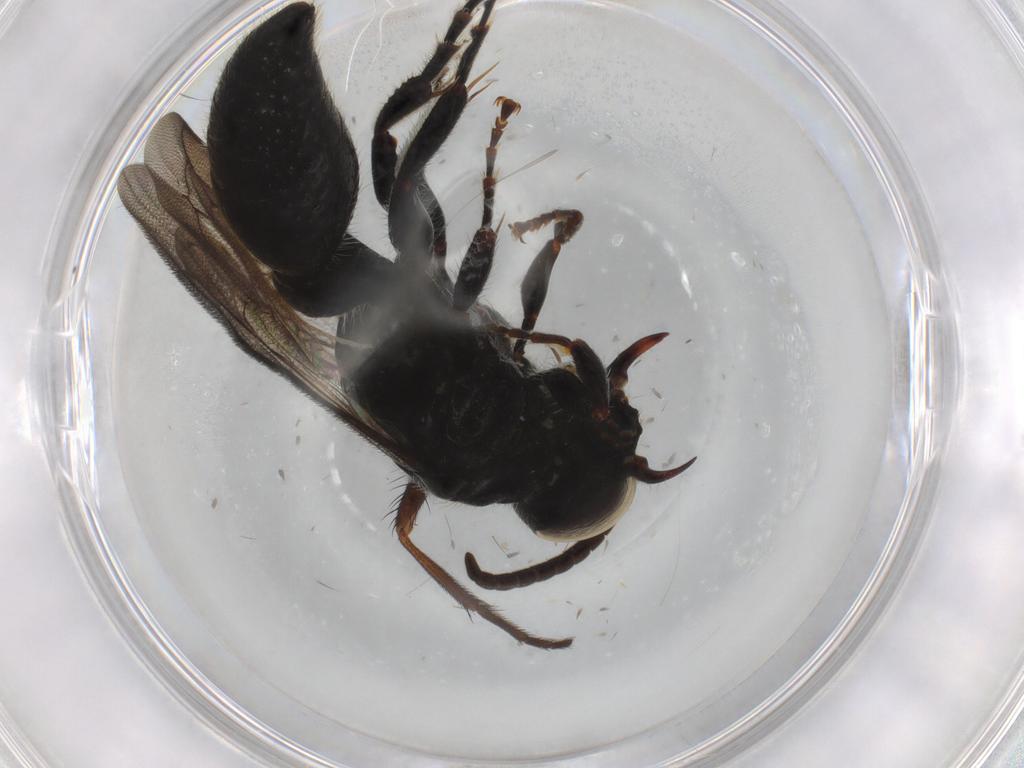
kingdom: Animalia
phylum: Arthropoda
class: Insecta
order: Hymenoptera
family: Tiphiidae
